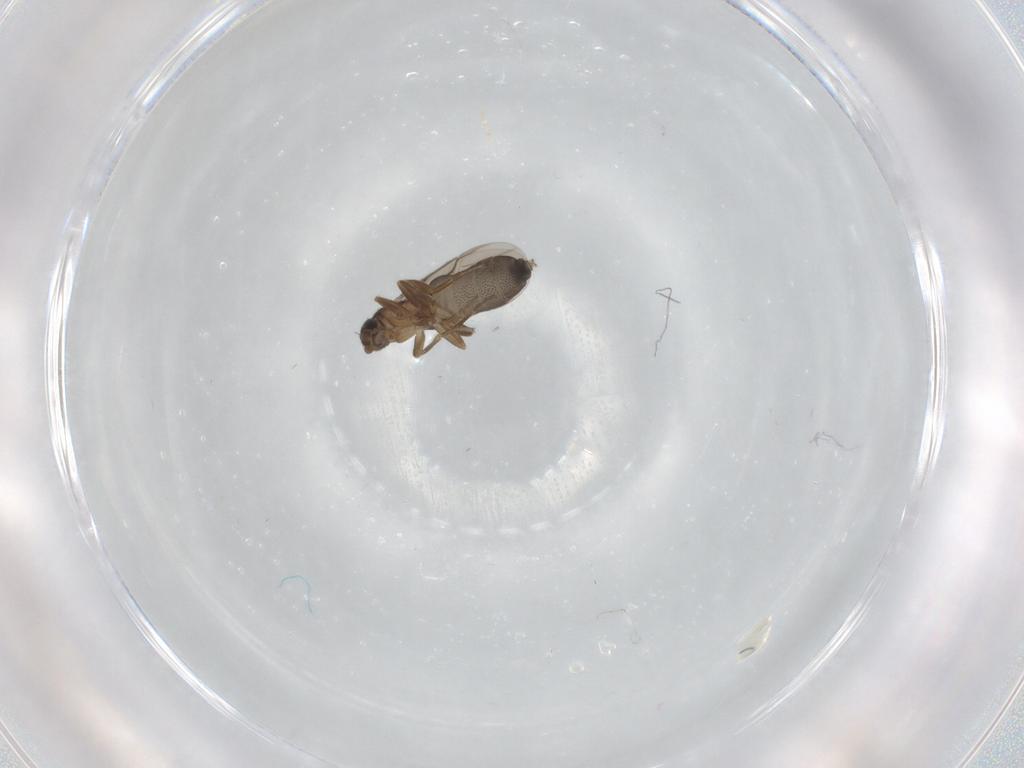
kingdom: Animalia
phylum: Arthropoda
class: Insecta
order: Diptera
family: Phoridae
